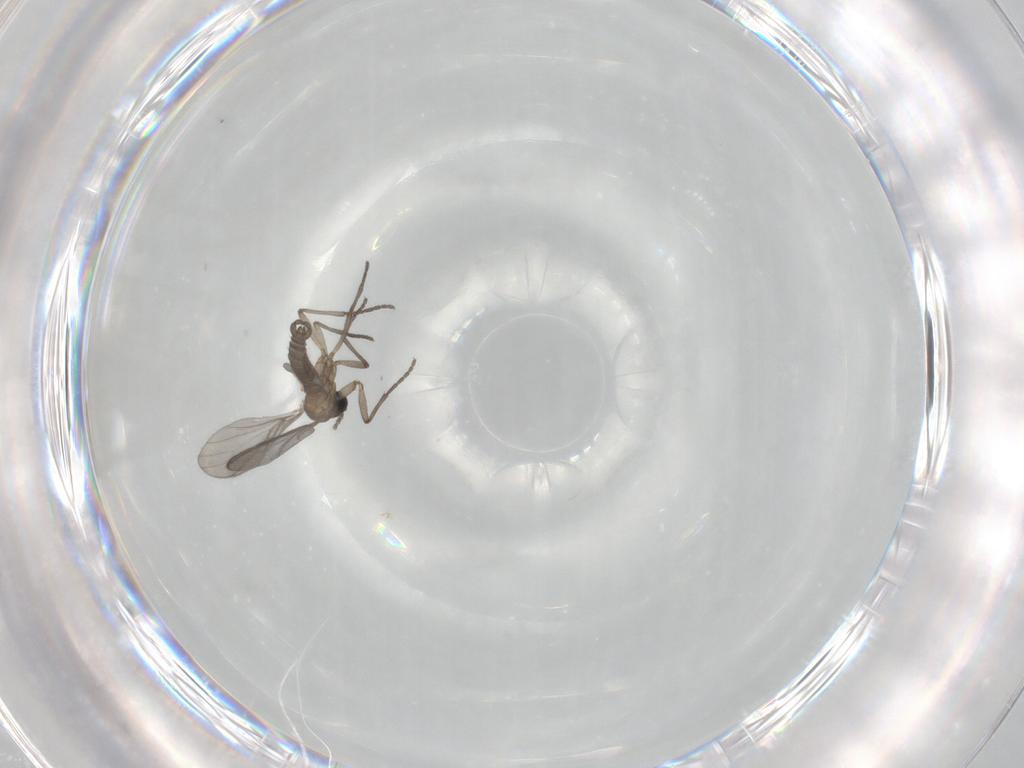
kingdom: Animalia
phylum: Arthropoda
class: Insecta
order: Diptera
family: Sciaridae
